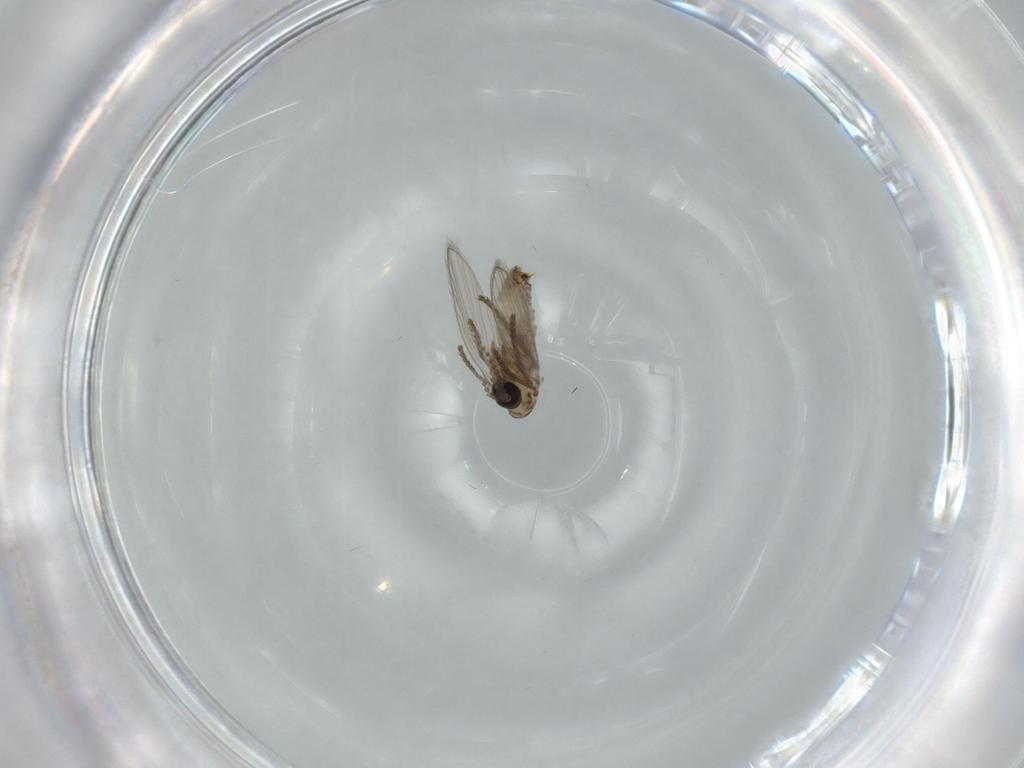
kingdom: Animalia
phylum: Arthropoda
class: Insecta
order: Diptera
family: Psychodidae
